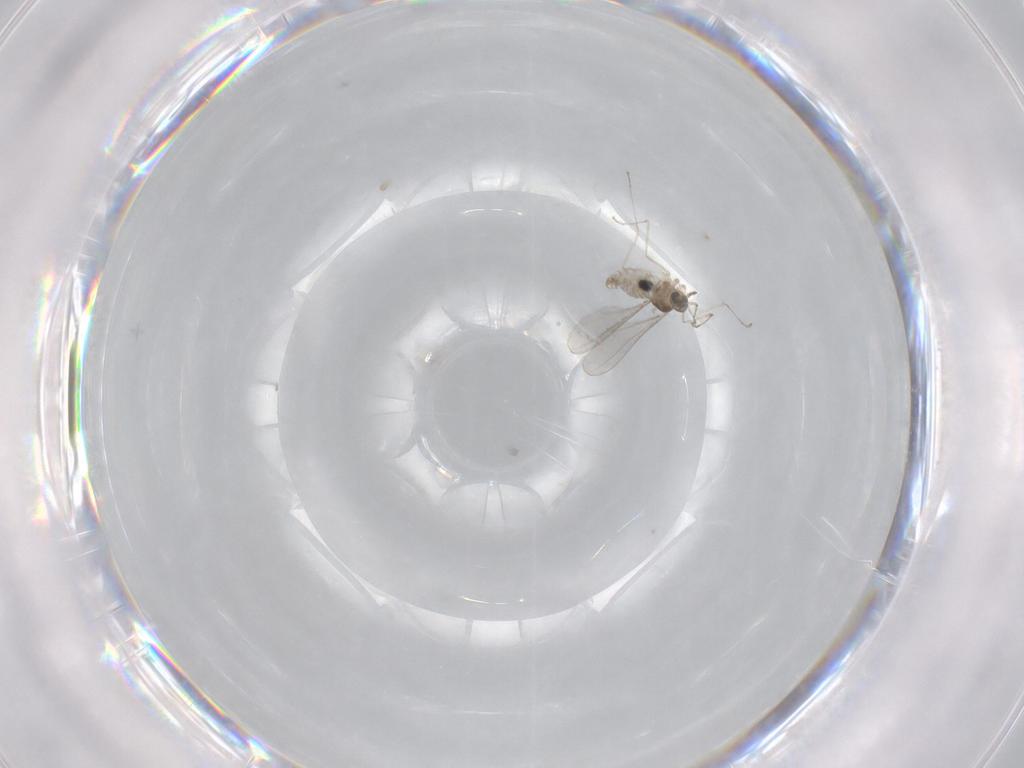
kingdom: Animalia
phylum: Arthropoda
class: Insecta
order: Diptera
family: Chironomidae
